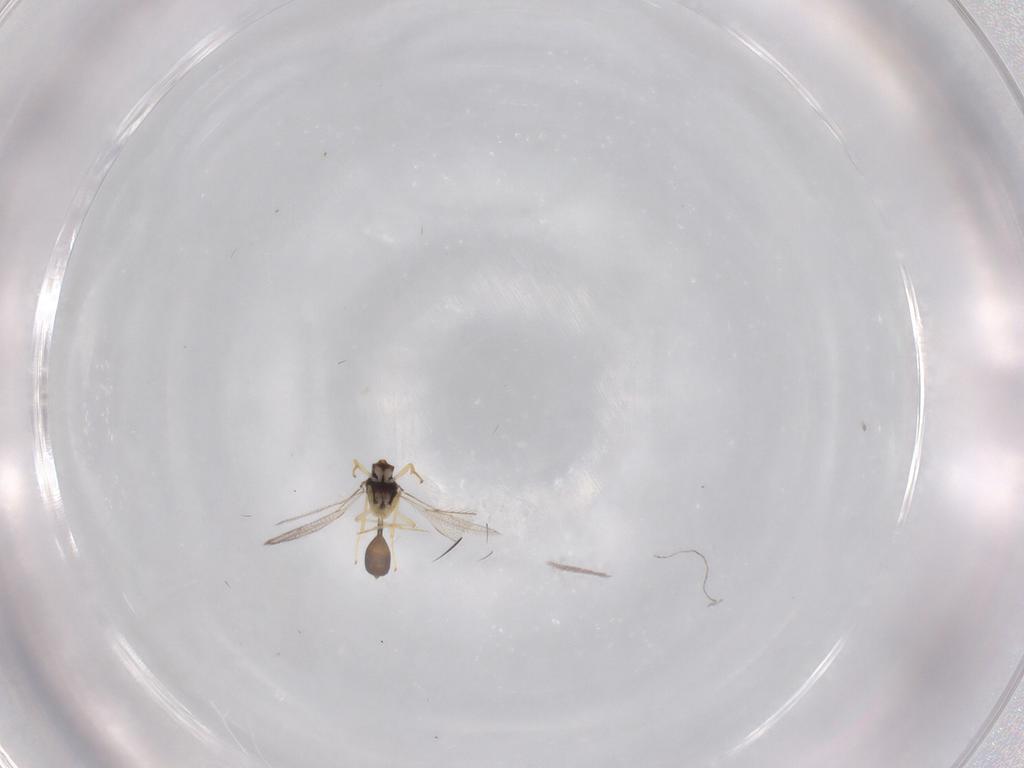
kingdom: Animalia
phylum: Arthropoda
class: Insecta
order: Hymenoptera
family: Diparidae
